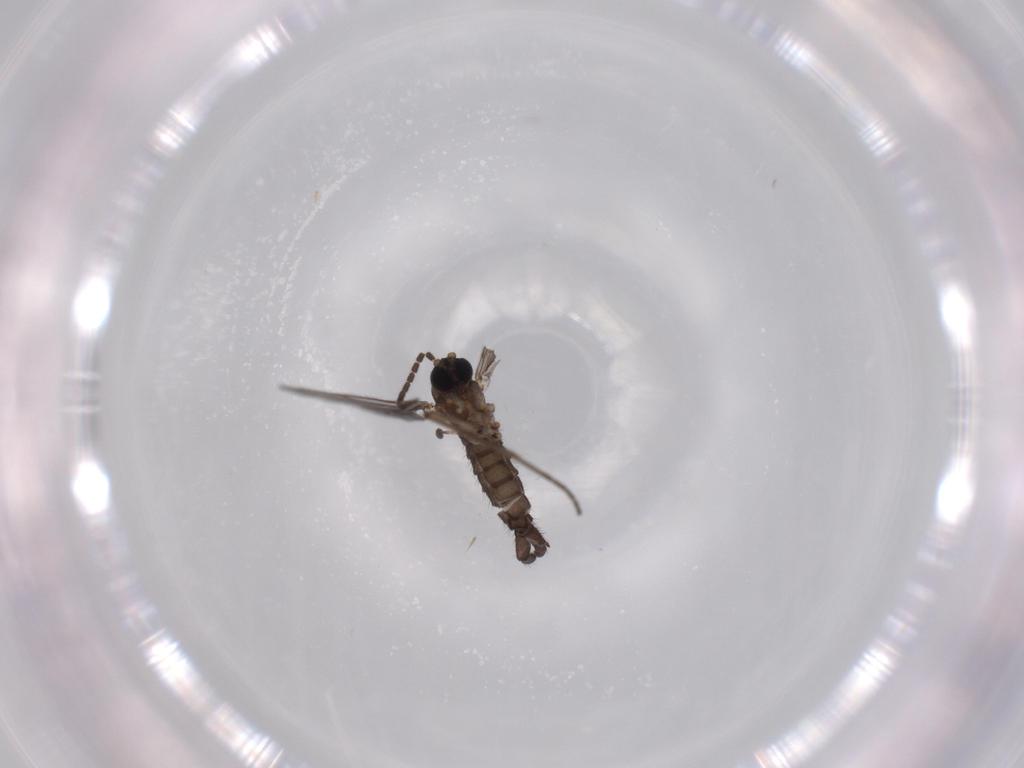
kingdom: Animalia
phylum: Arthropoda
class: Insecta
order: Diptera
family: Sciaridae
